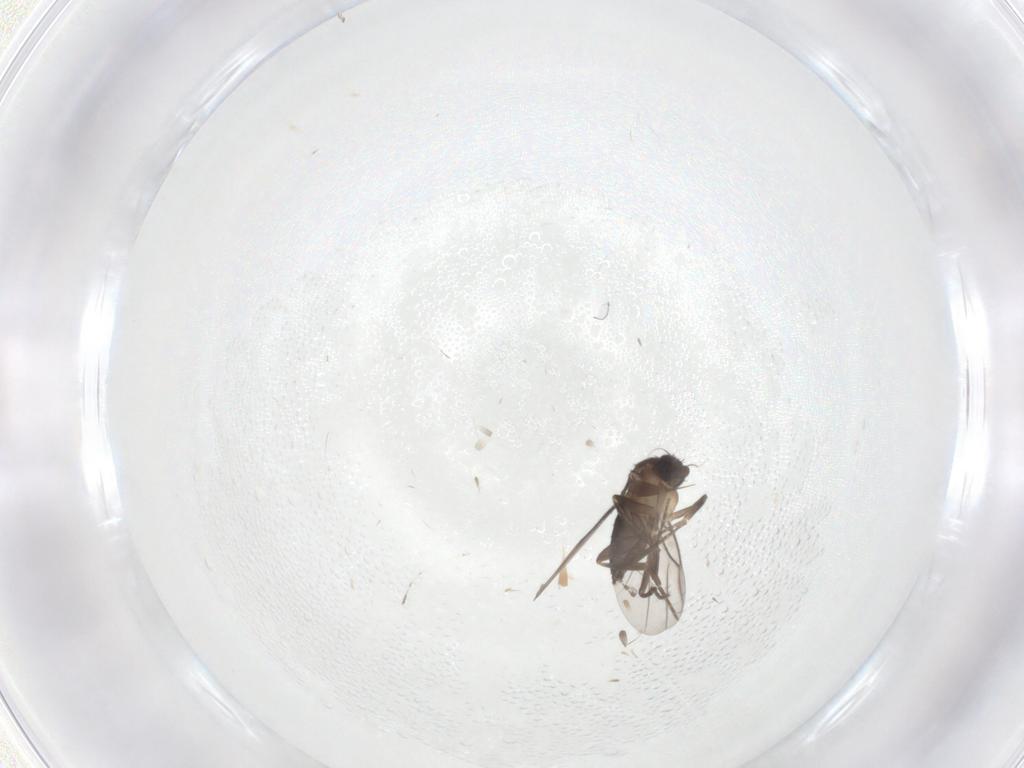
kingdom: Animalia
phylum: Arthropoda
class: Insecta
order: Diptera
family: Phoridae
